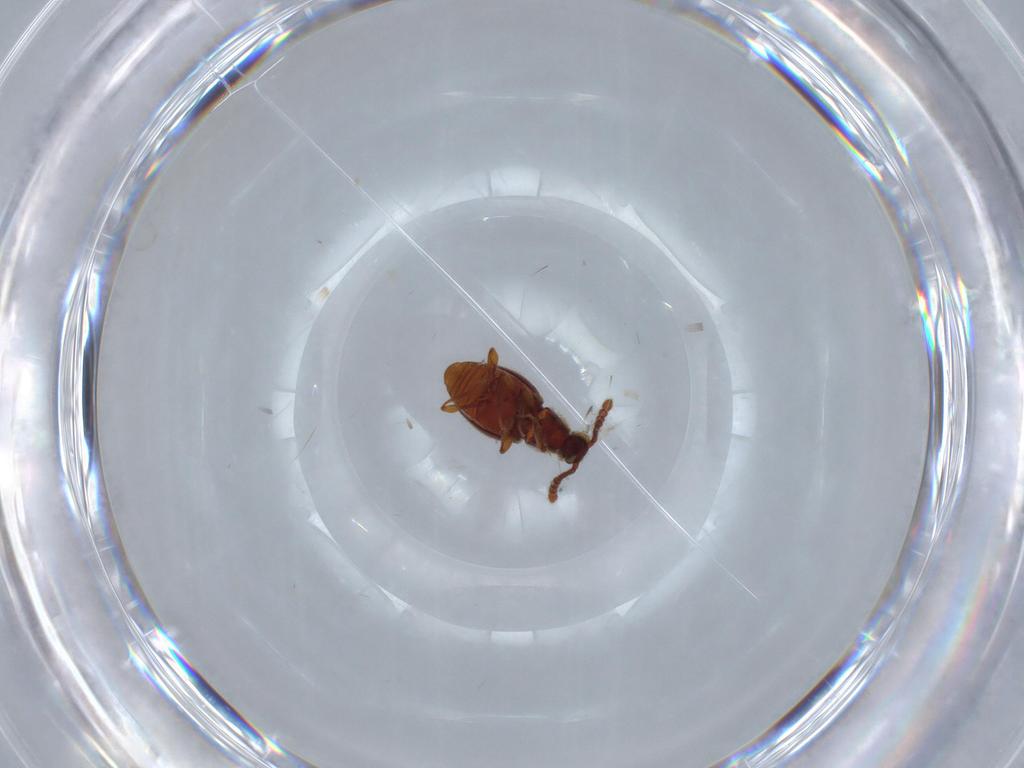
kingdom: Animalia
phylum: Arthropoda
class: Insecta
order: Coleoptera
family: Staphylinidae
